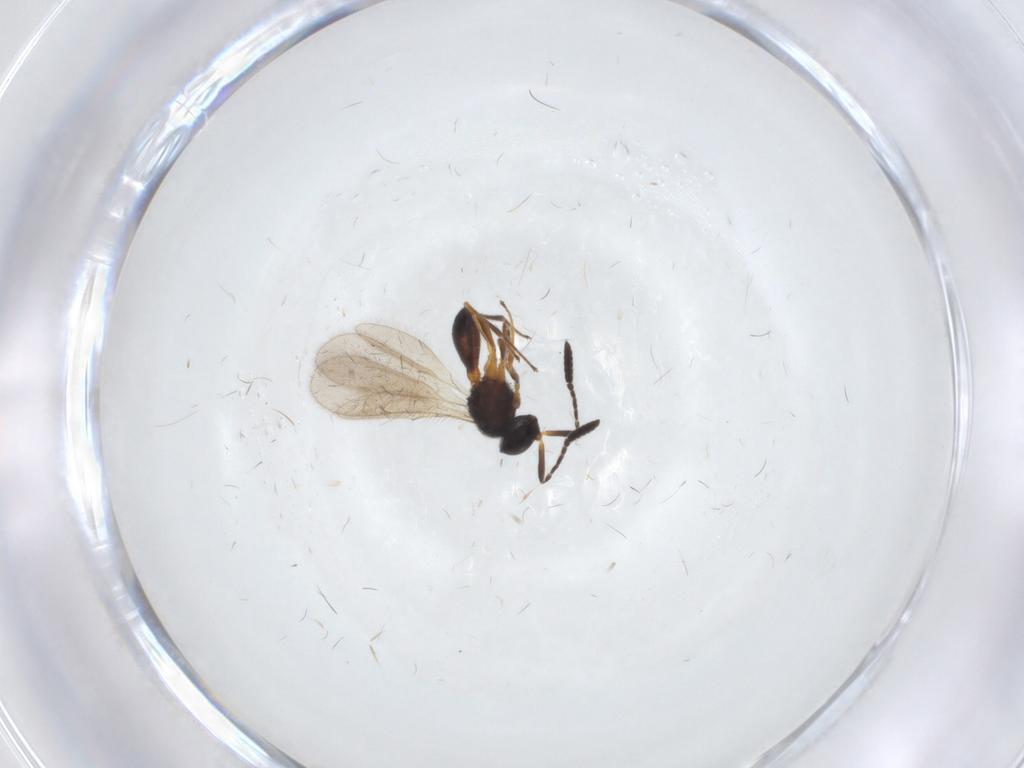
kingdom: Animalia
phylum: Arthropoda
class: Insecta
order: Hymenoptera
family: Scelionidae
